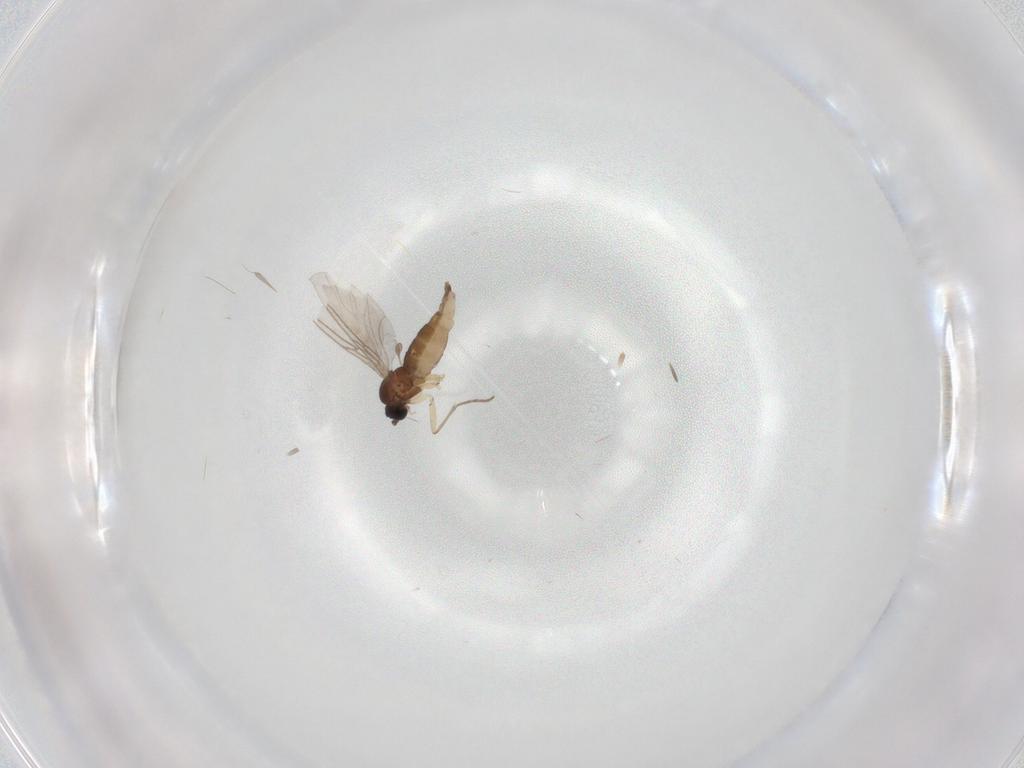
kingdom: Animalia
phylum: Arthropoda
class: Insecta
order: Diptera
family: Sciaridae
